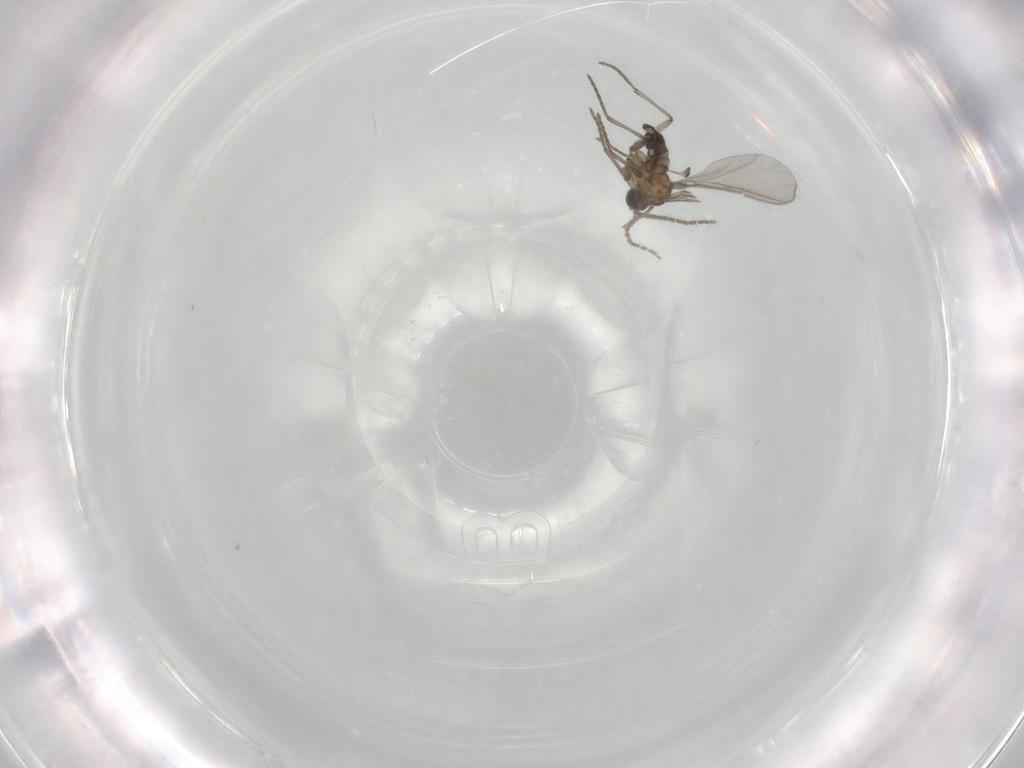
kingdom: Animalia
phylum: Arthropoda
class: Insecta
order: Diptera
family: Sciaridae
